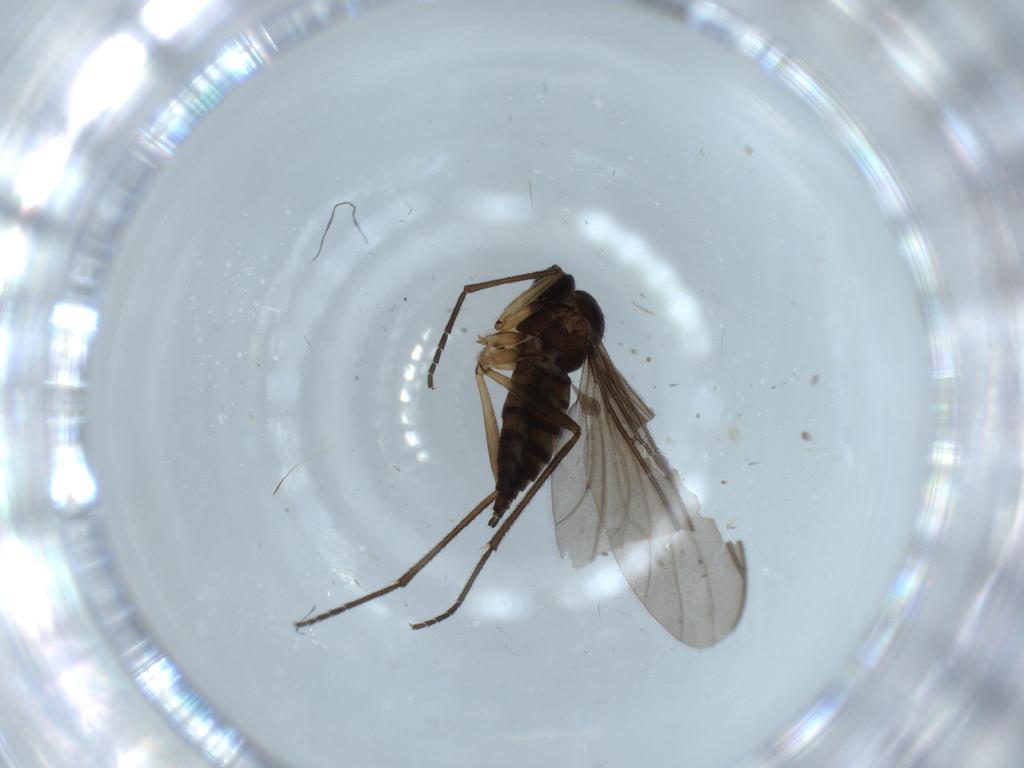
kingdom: Animalia
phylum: Arthropoda
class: Insecta
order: Diptera
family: Sciaridae
